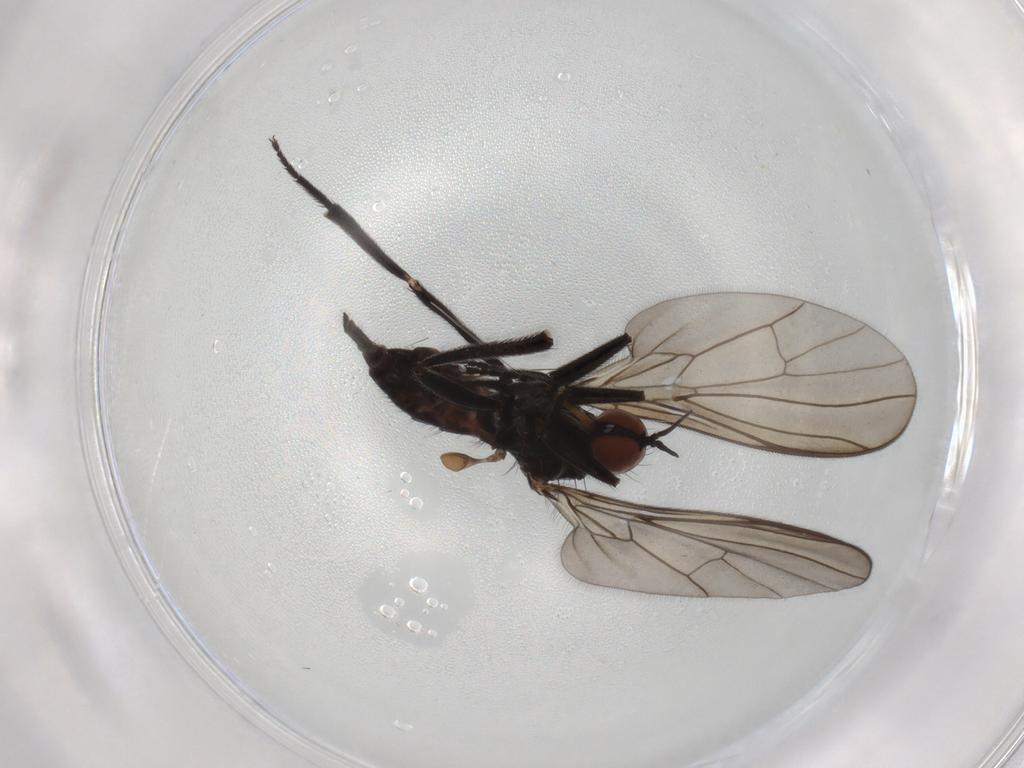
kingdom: Animalia
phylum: Arthropoda
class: Insecta
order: Diptera
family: Empididae
